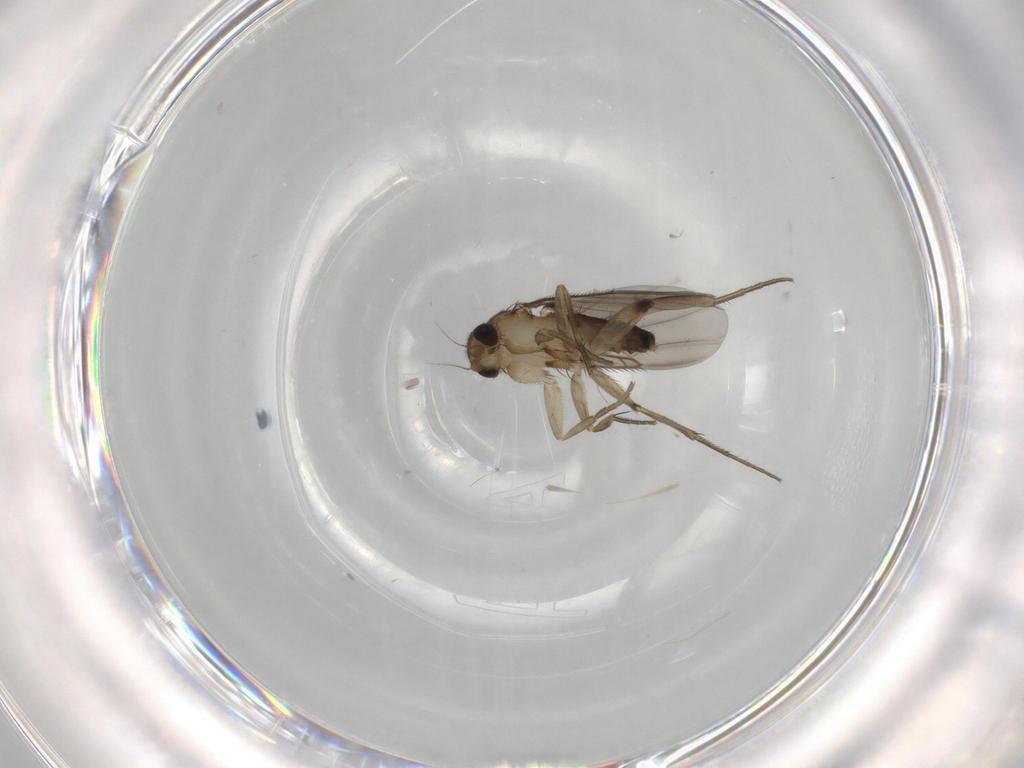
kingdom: Animalia
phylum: Arthropoda
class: Insecta
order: Diptera
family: Phoridae
